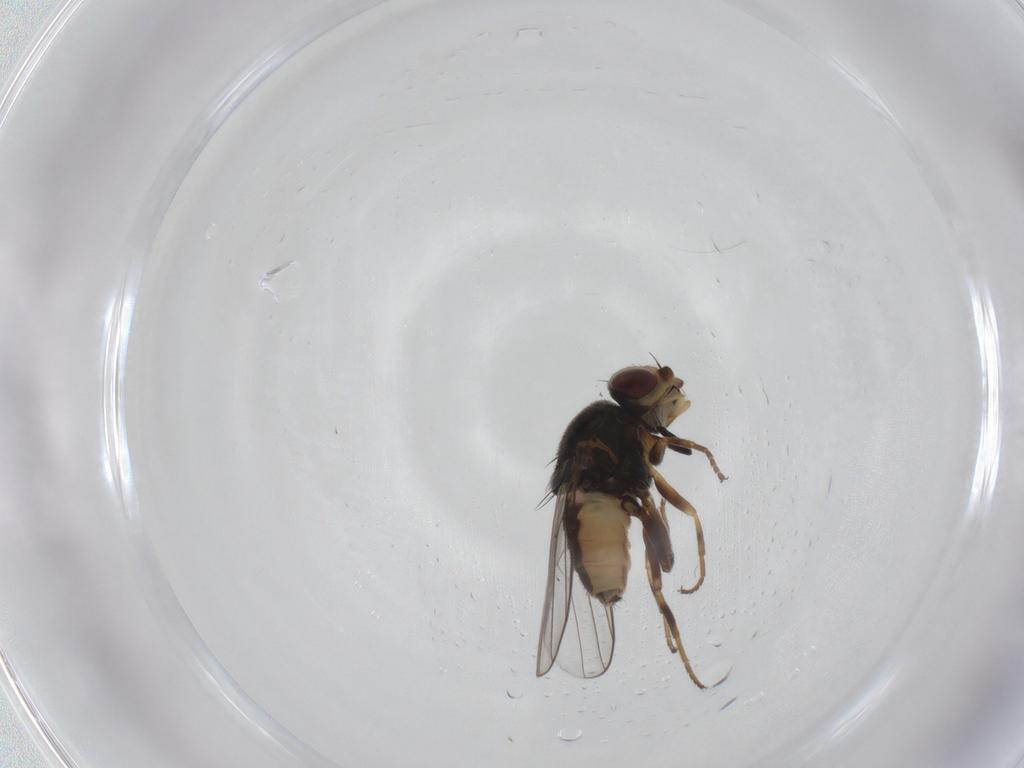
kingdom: Animalia
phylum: Arthropoda
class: Insecta
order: Diptera
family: Chloropidae
